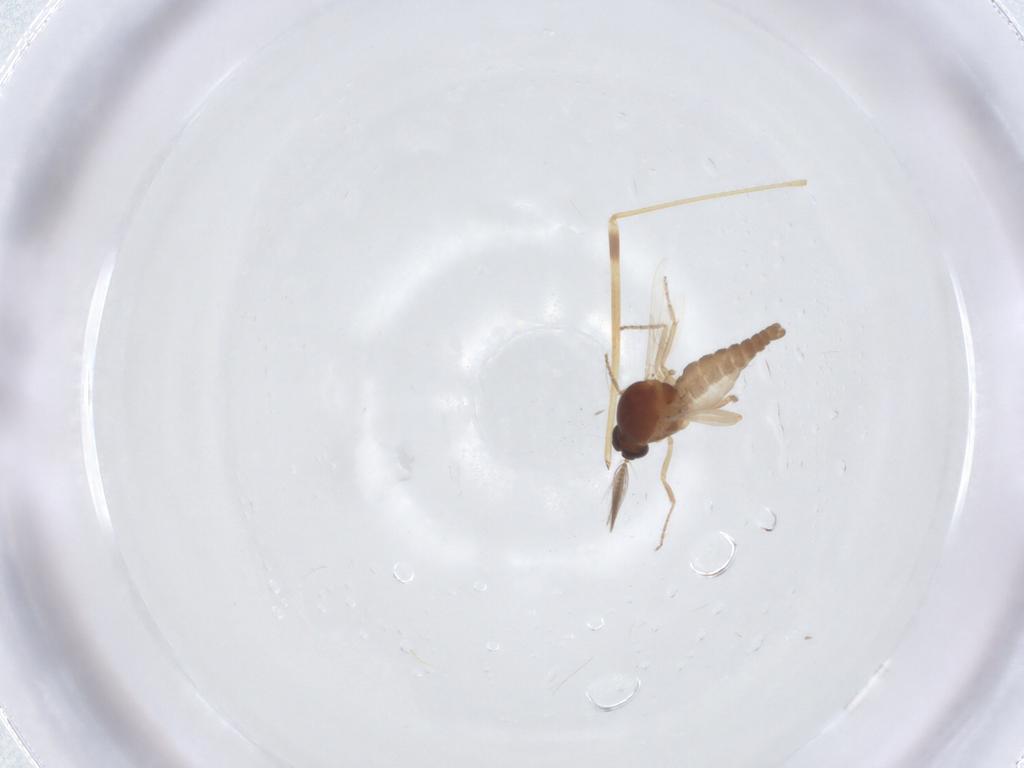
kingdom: Animalia
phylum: Arthropoda
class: Insecta
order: Diptera
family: Ceratopogonidae
